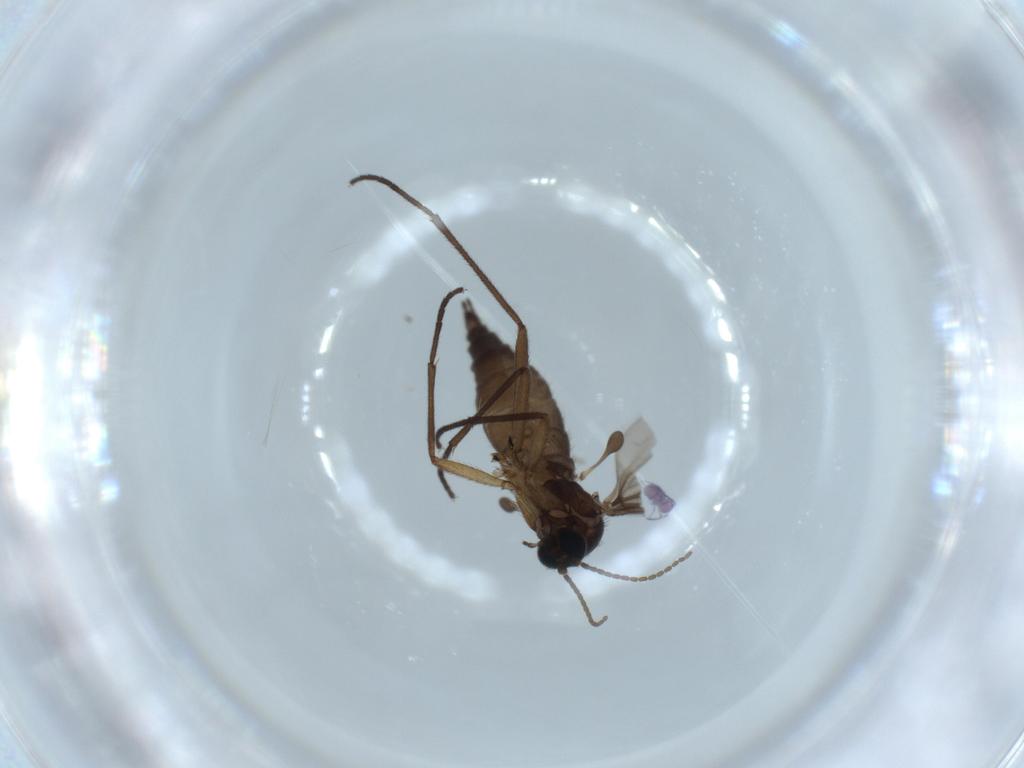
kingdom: Animalia
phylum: Arthropoda
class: Insecta
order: Diptera
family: Sciaridae
